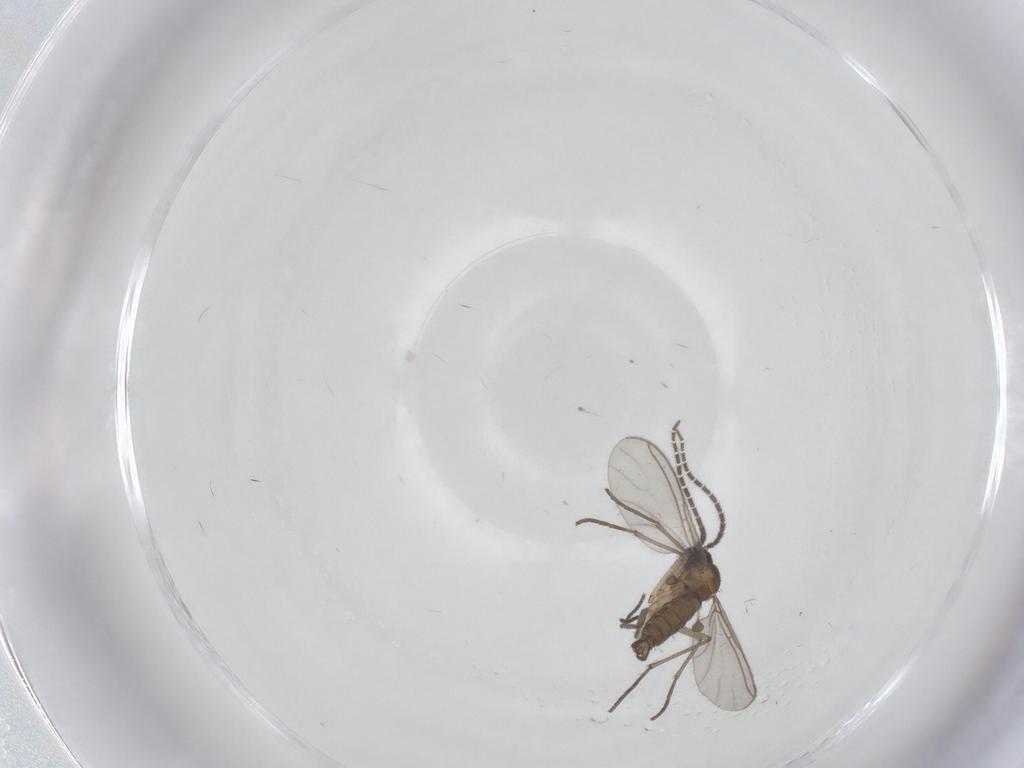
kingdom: Animalia
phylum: Arthropoda
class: Insecta
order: Diptera
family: Sciaridae
